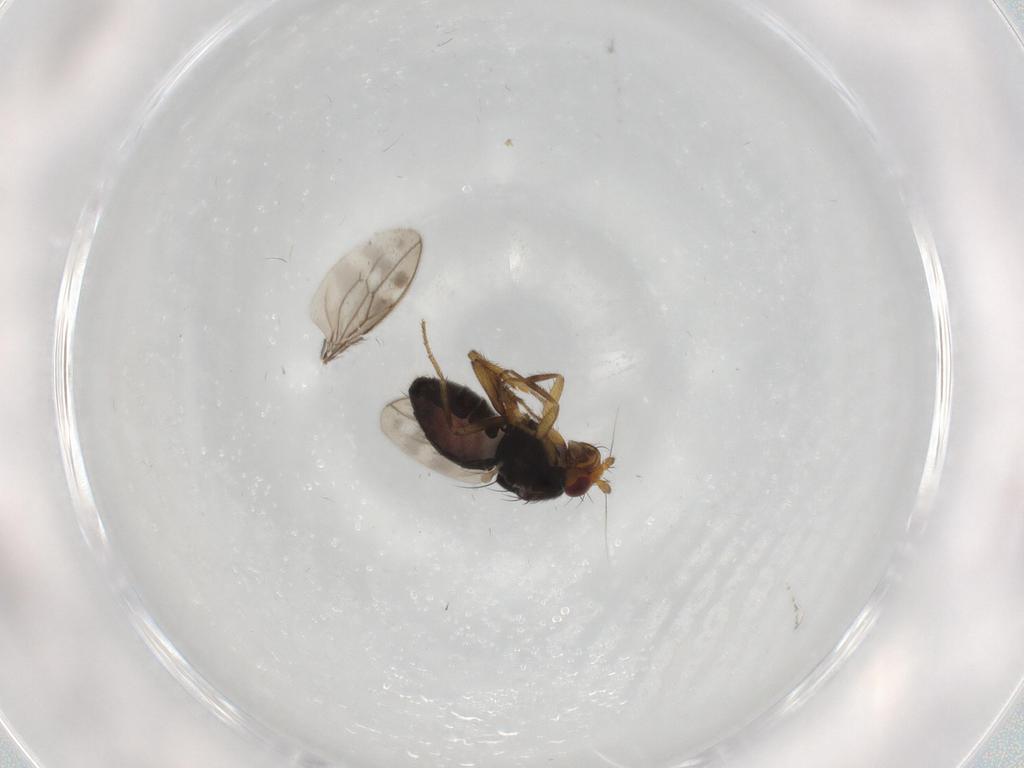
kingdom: Animalia
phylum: Arthropoda
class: Insecta
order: Diptera
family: Sphaeroceridae
